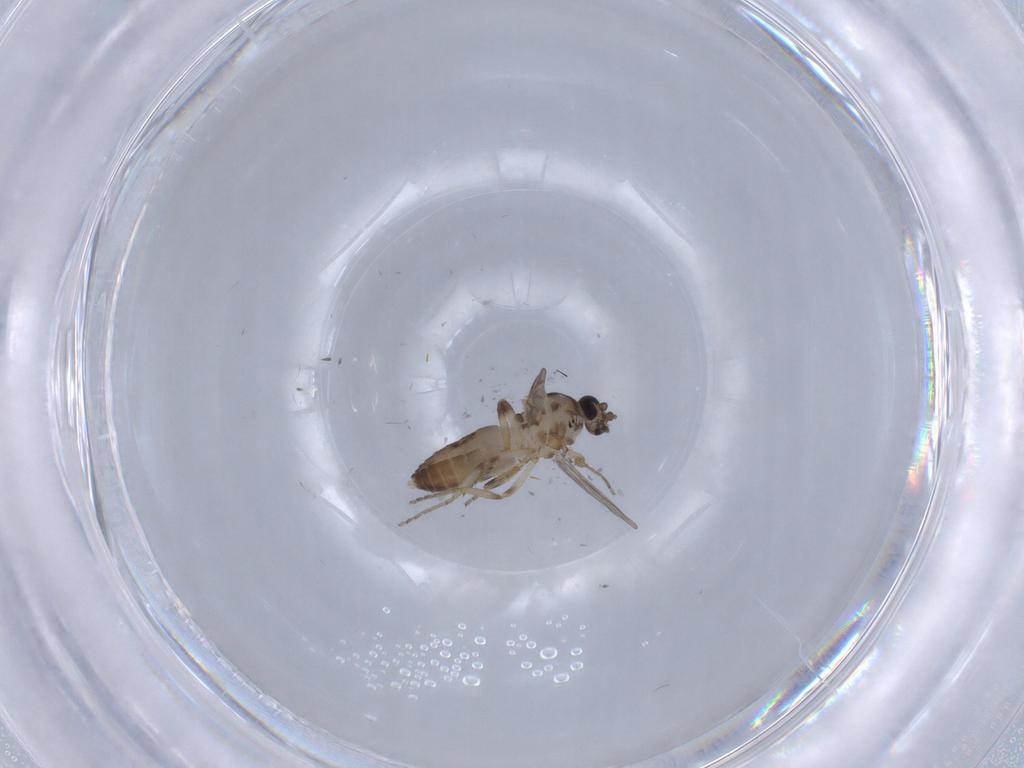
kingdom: Animalia
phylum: Arthropoda
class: Insecta
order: Diptera
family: Ceratopogonidae
